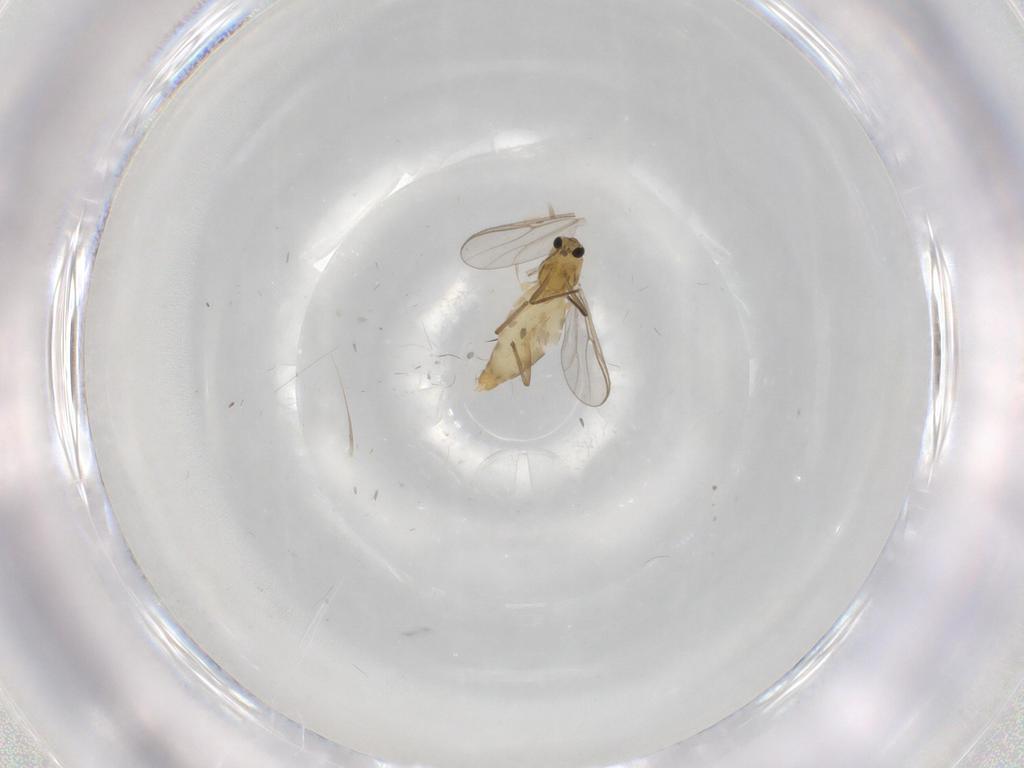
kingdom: Animalia
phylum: Arthropoda
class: Insecta
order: Diptera
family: Chironomidae
